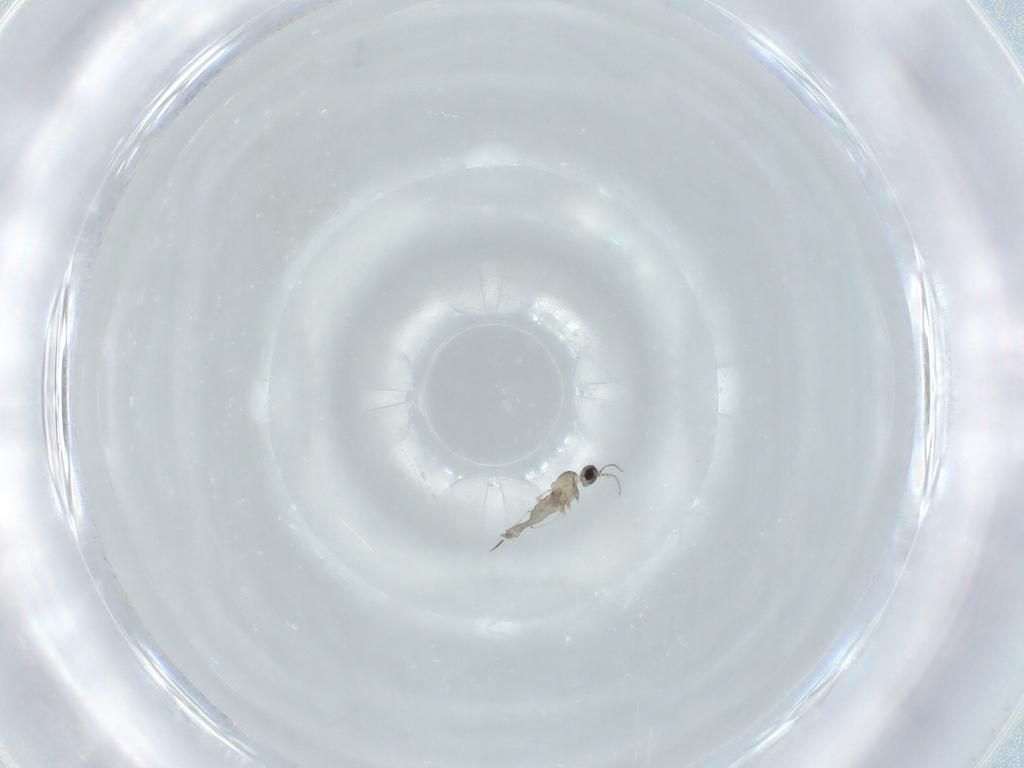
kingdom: Animalia
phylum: Arthropoda
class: Insecta
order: Diptera
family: Cecidomyiidae
